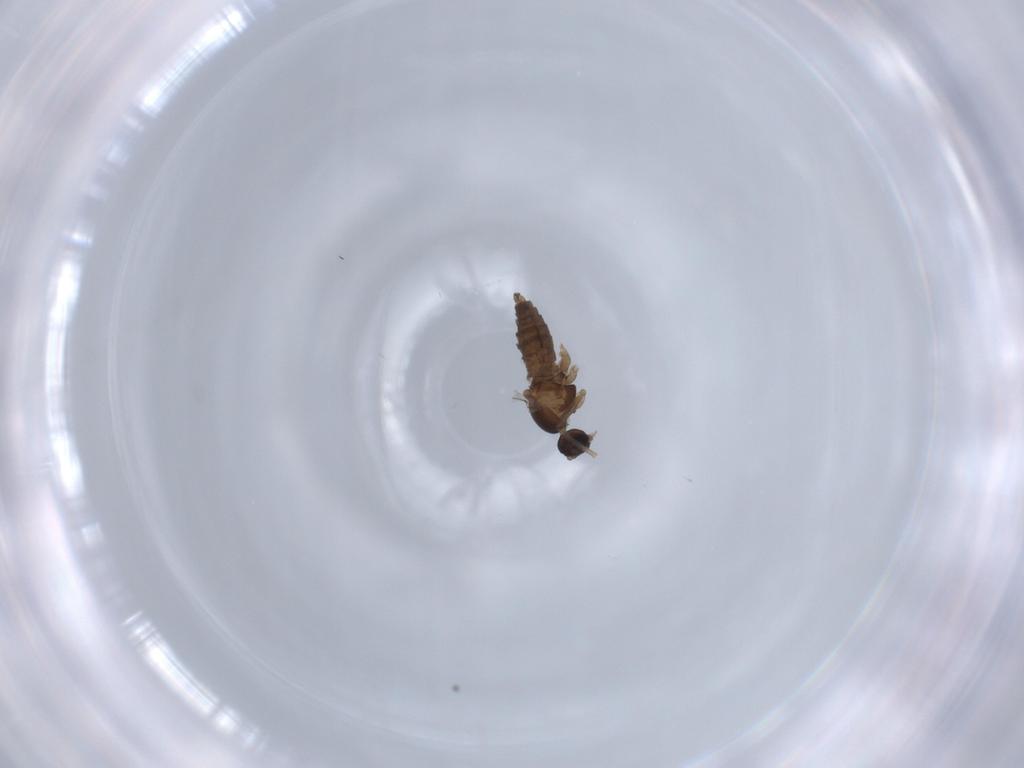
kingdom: Animalia
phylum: Arthropoda
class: Insecta
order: Diptera
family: Cecidomyiidae
